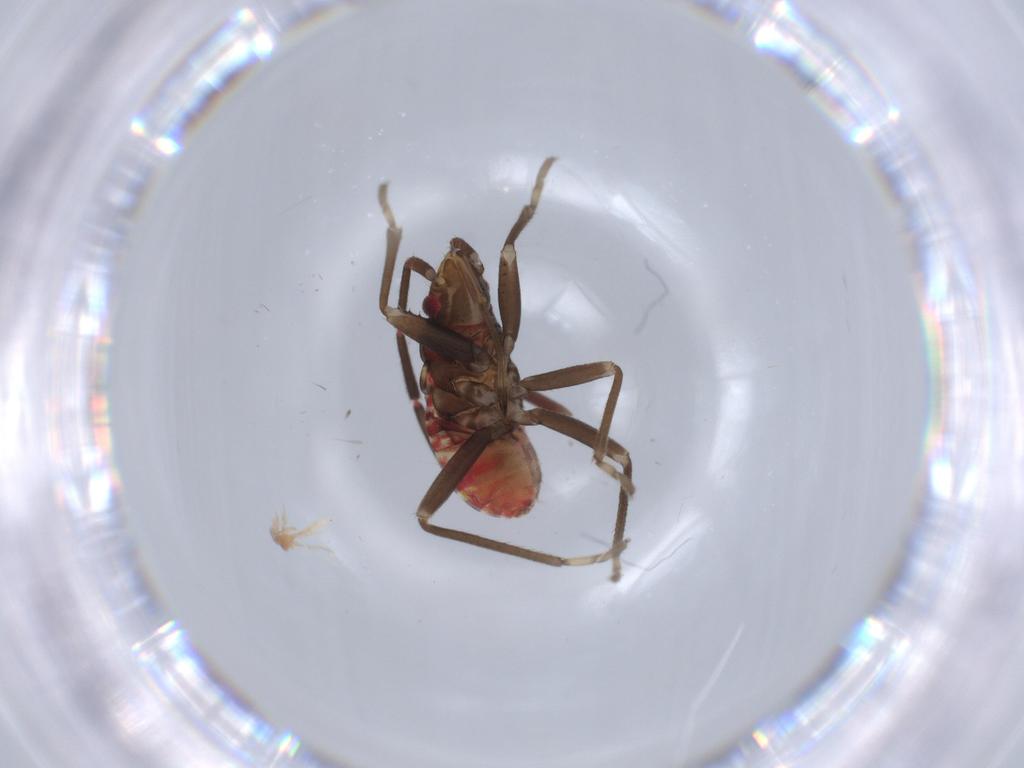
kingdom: Animalia
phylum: Arthropoda
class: Insecta
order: Hemiptera
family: Rhyparochromidae
